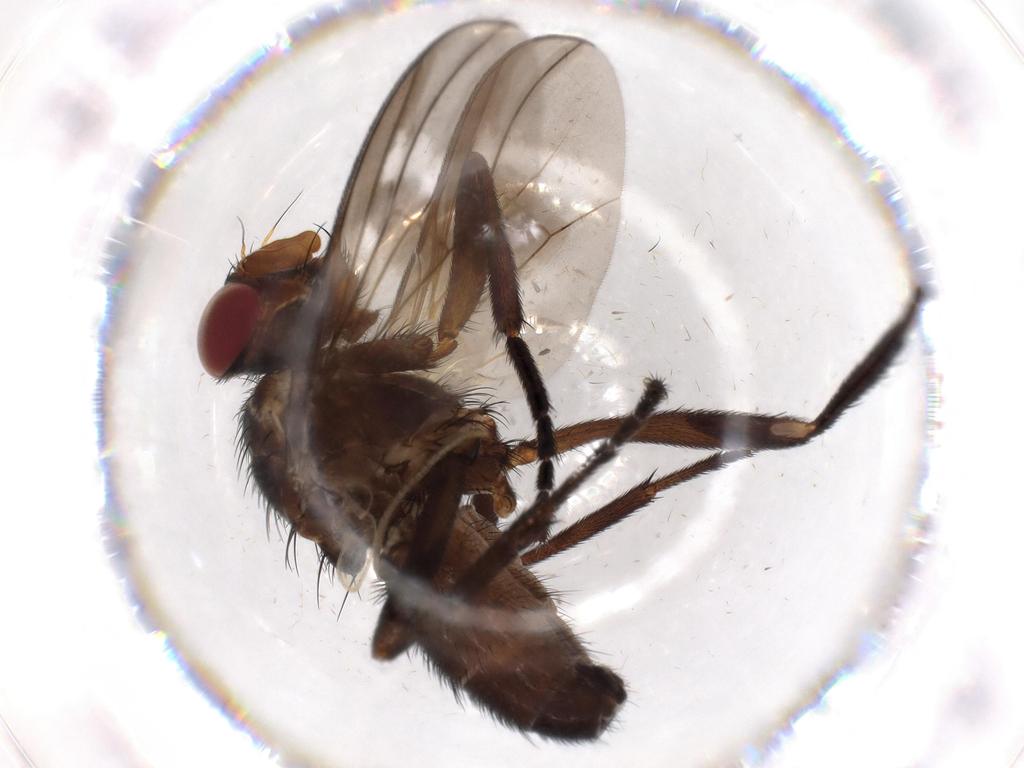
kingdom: Animalia
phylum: Arthropoda
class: Insecta
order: Diptera
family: Calliphoridae
